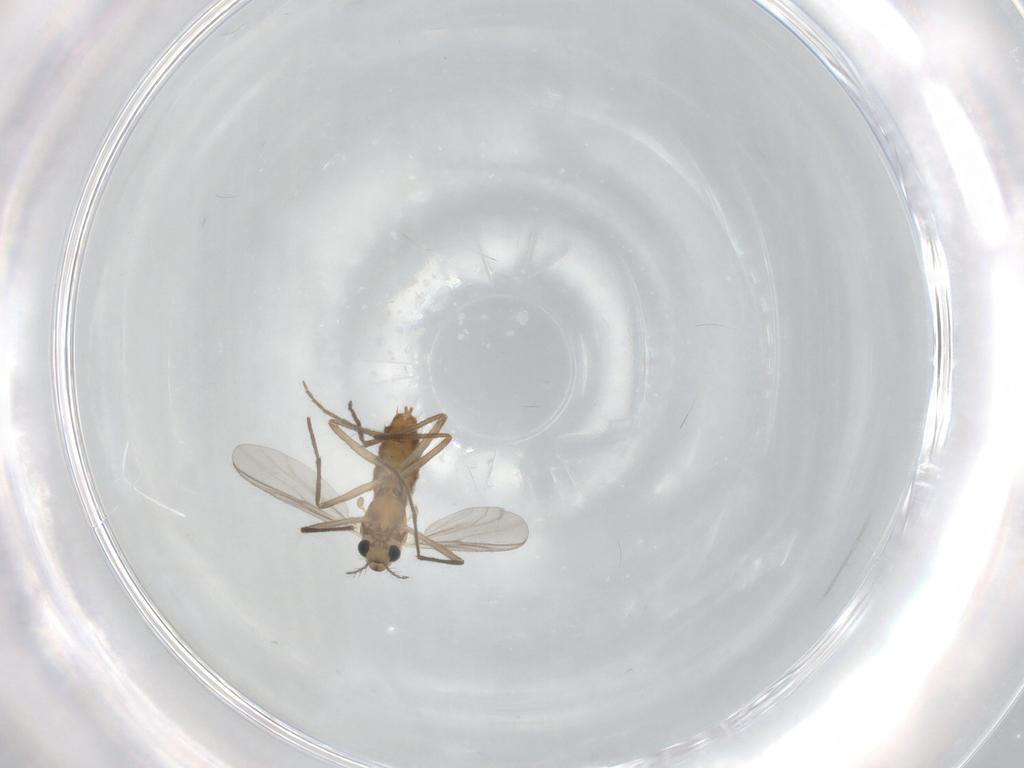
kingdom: Animalia
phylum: Arthropoda
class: Insecta
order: Diptera
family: Chironomidae
